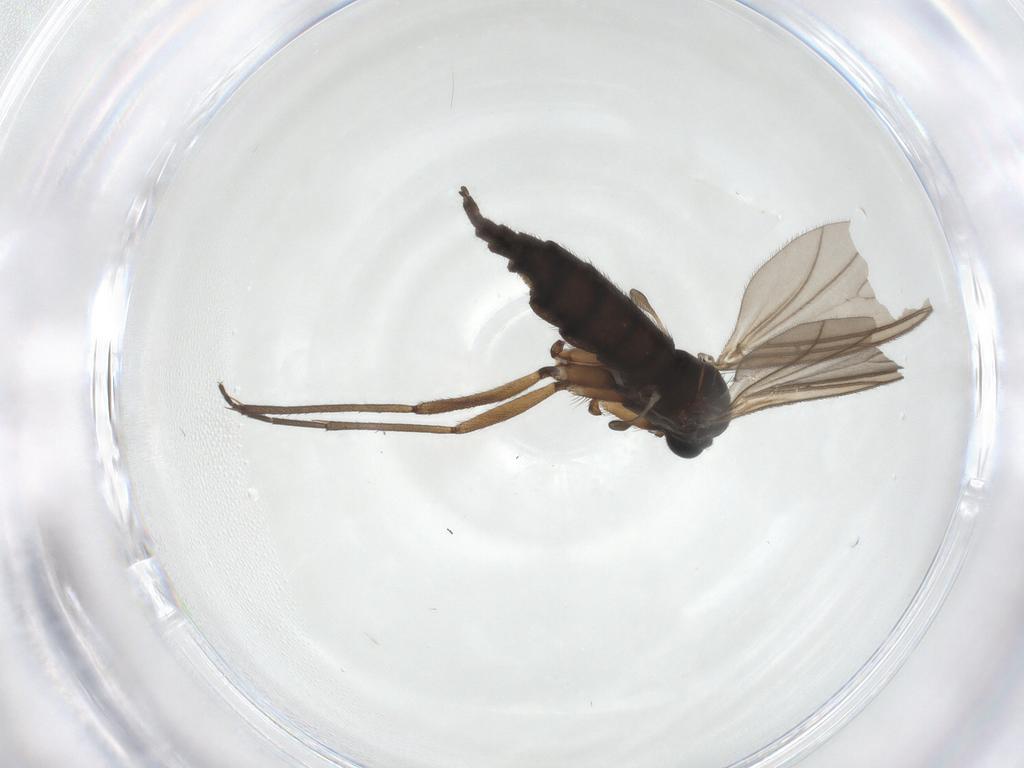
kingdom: Animalia
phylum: Arthropoda
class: Insecta
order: Diptera
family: Sciaridae
